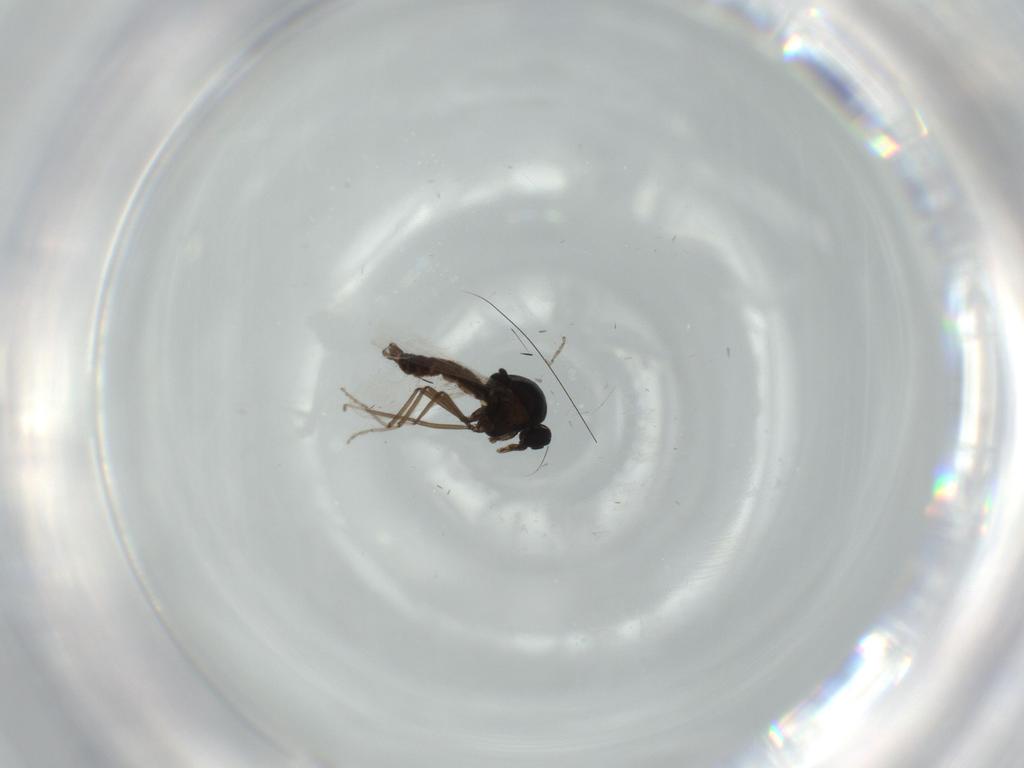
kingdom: Animalia
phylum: Arthropoda
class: Insecta
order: Diptera
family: Ceratopogonidae
